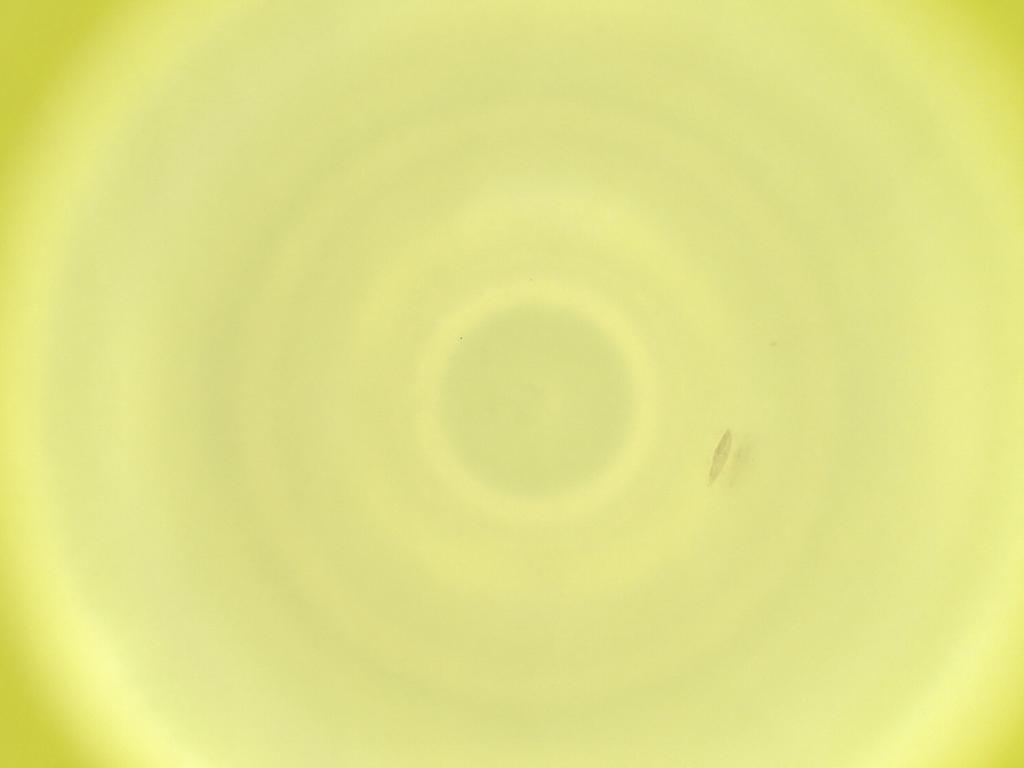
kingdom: Animalia
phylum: Arthropoda
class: Insecta
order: Diptera
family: Cecidomyiidae
